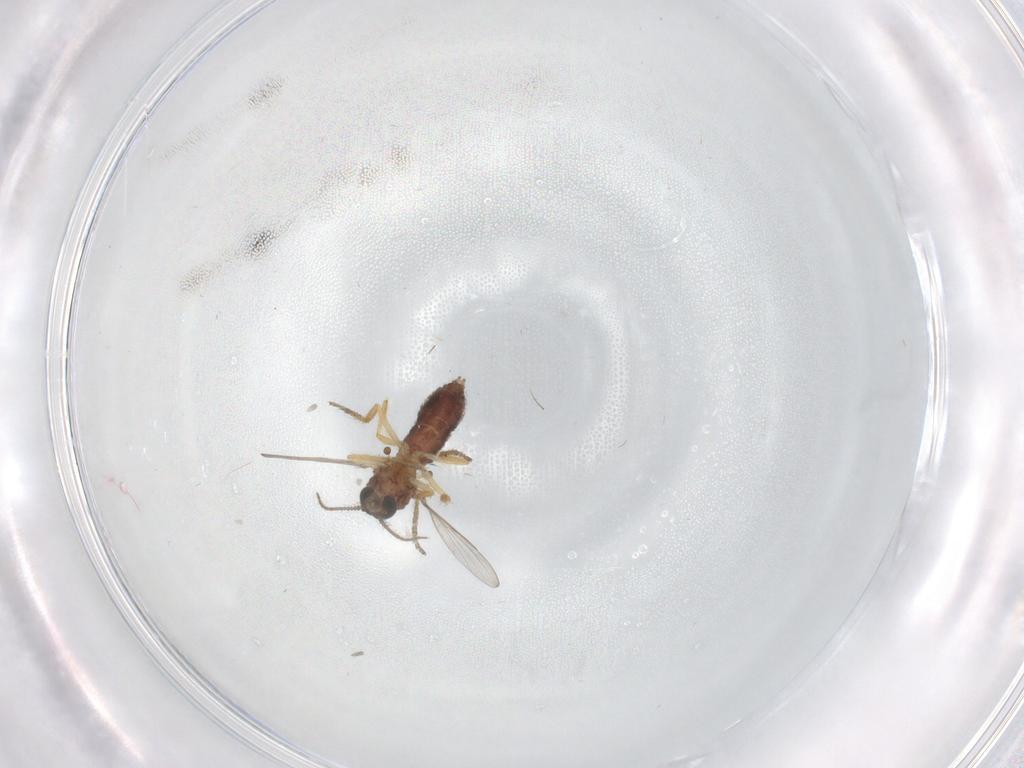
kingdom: Animalia
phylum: Arthropoda
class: Insecta
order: Diptera
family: Ceratopogonidae
